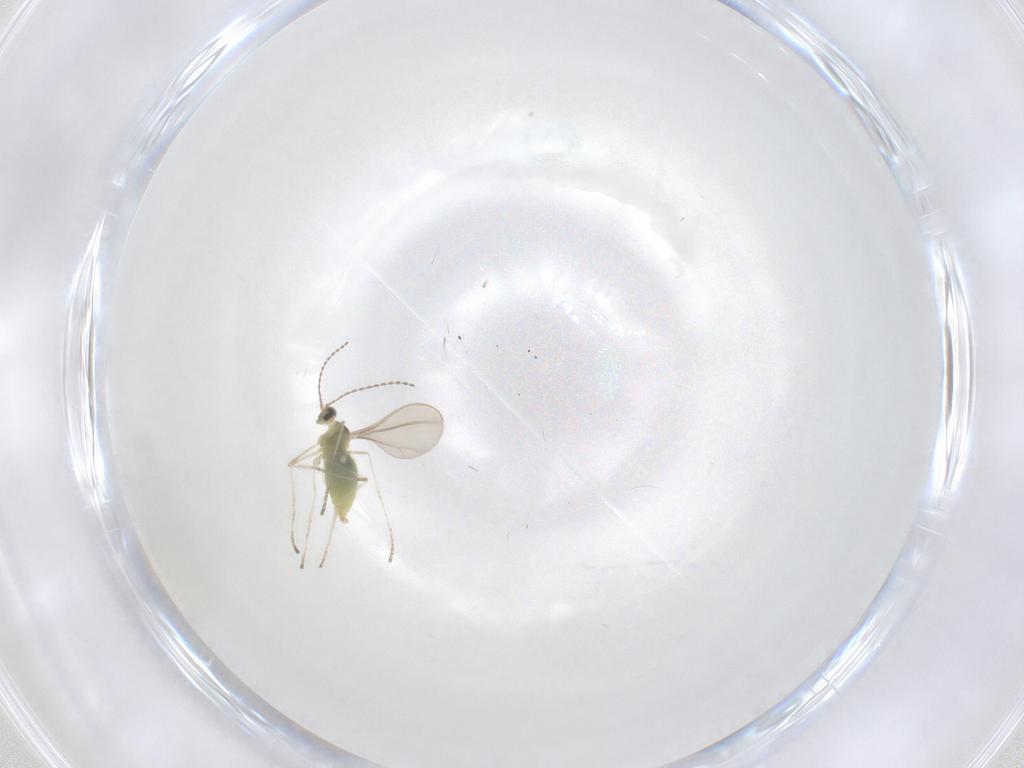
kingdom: Animalia
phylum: Arthropoda
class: Insecta
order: Diptera
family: Cecidomyiidae
